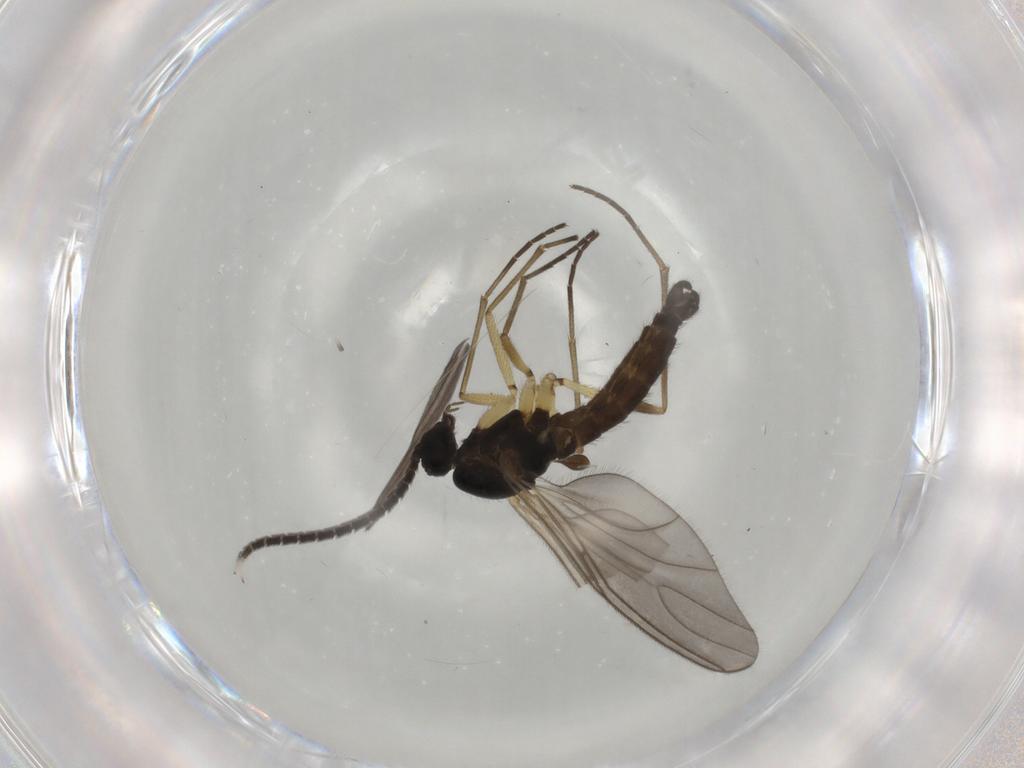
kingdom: Animalia
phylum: Arthropoda
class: Insecta
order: Diptera
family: Sciaridae
